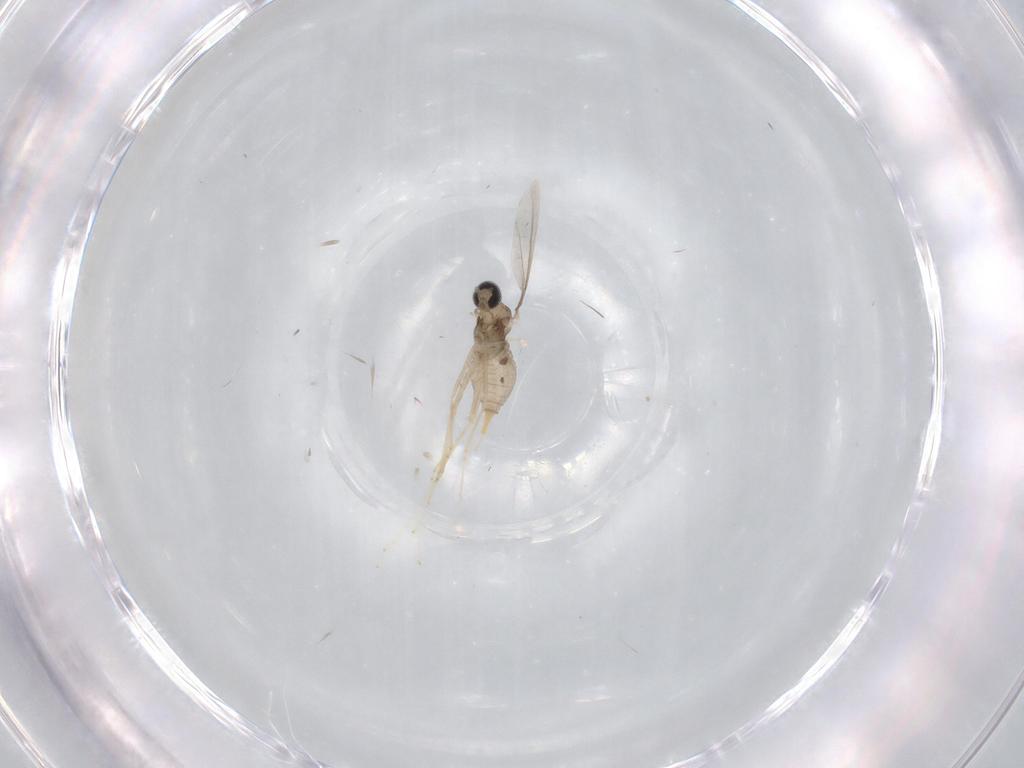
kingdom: Animalia
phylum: Arthropoda
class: Insecta
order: Diptera
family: Cecidomyiidae
